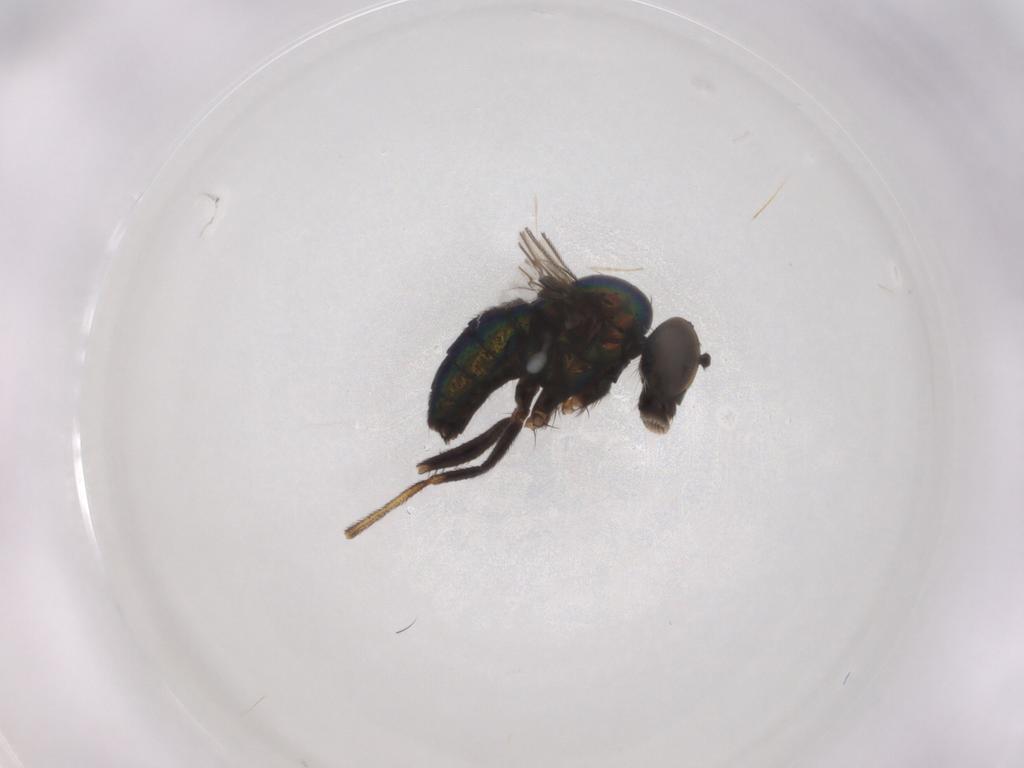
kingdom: Animalia
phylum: Arthropoda
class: Insecta
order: Diptera
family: Dolichopodidae
